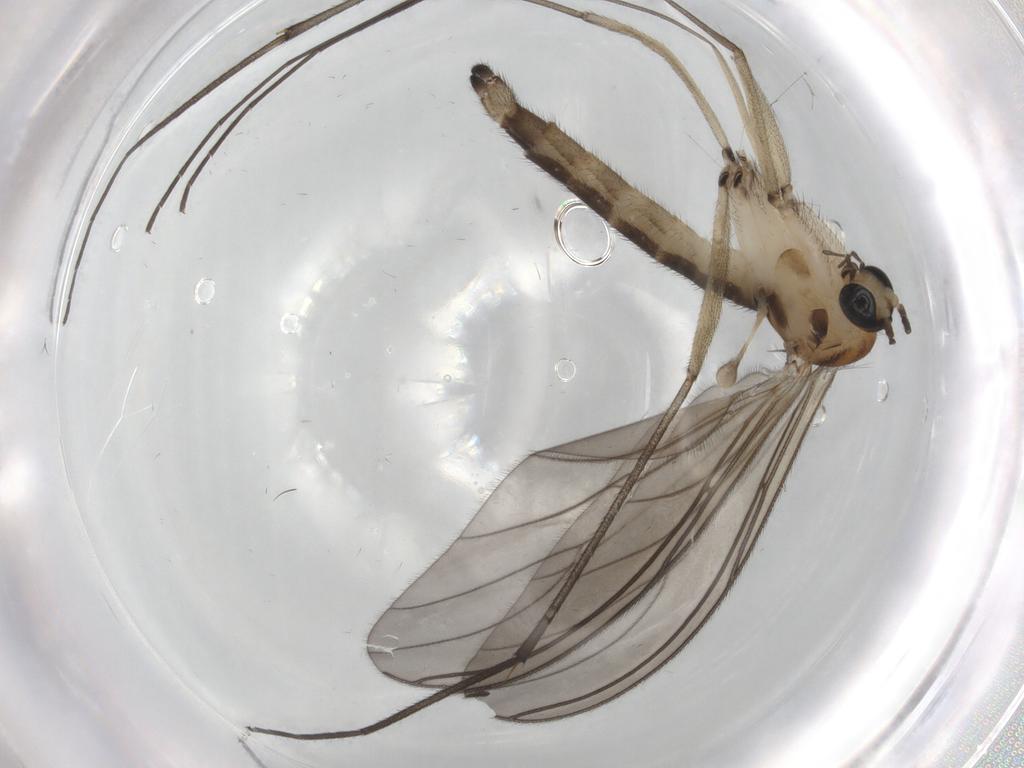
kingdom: Animalia
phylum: Arthropoda
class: Insecta
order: Diptera
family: Sciaridae
